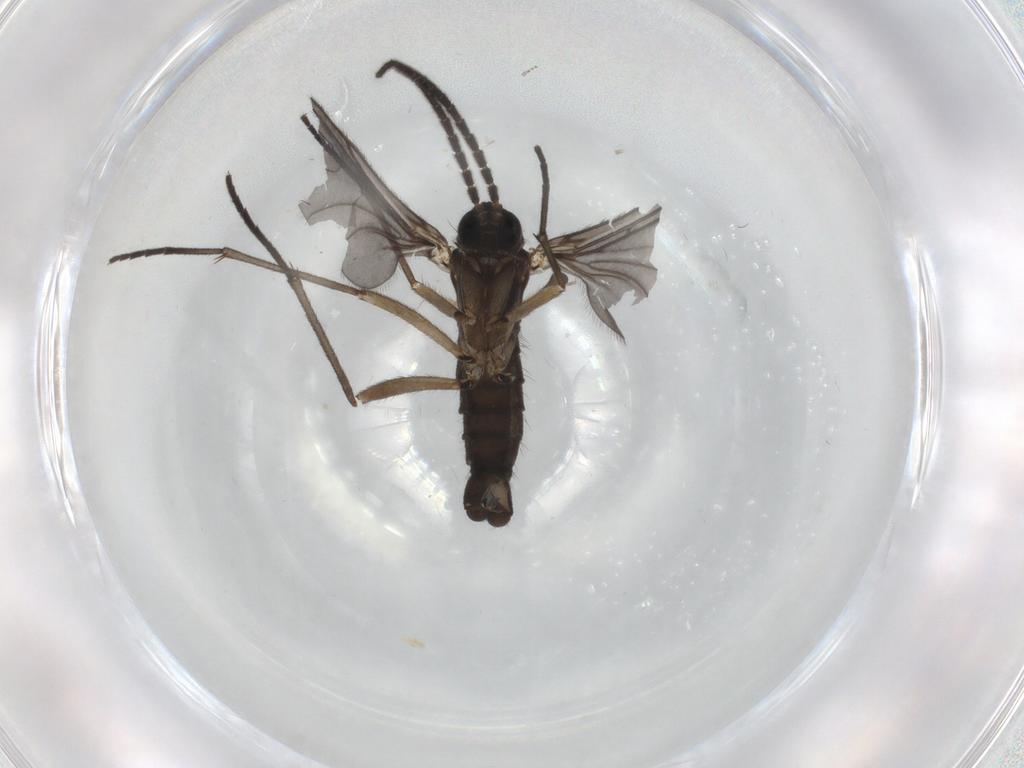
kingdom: Animalia
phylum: Arthropoda
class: Insecta
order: Diptera
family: Sciaridae
